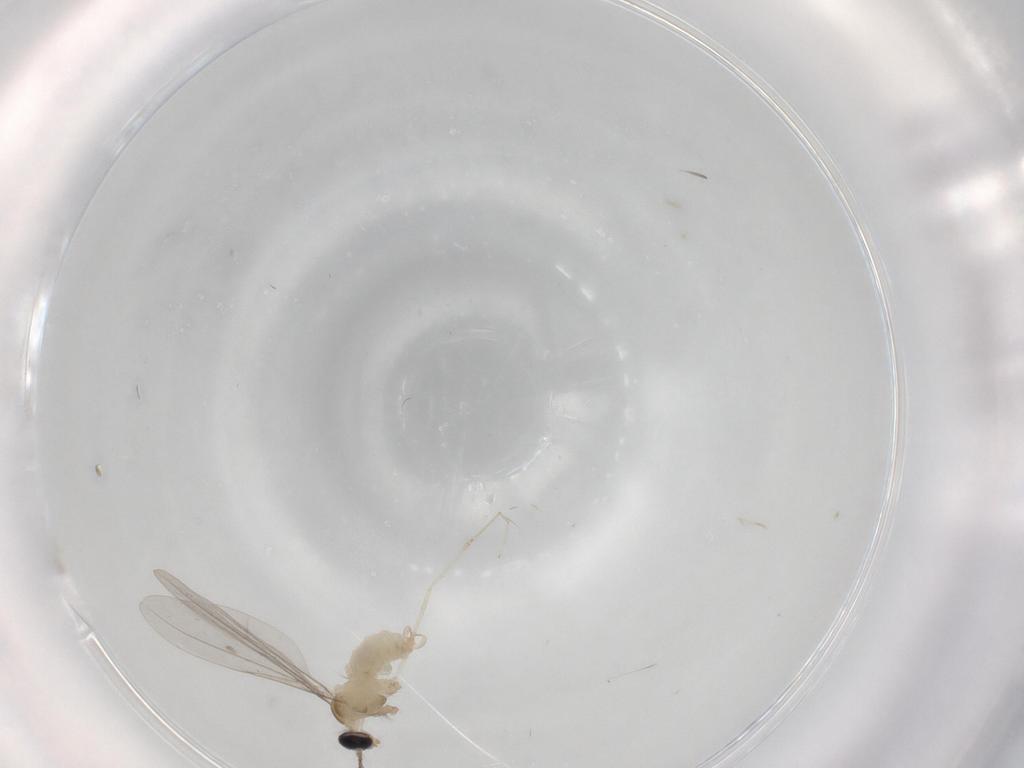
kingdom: Animalia
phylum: Arthropoda
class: Insecta
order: Diptera
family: Cecidomyiidae
